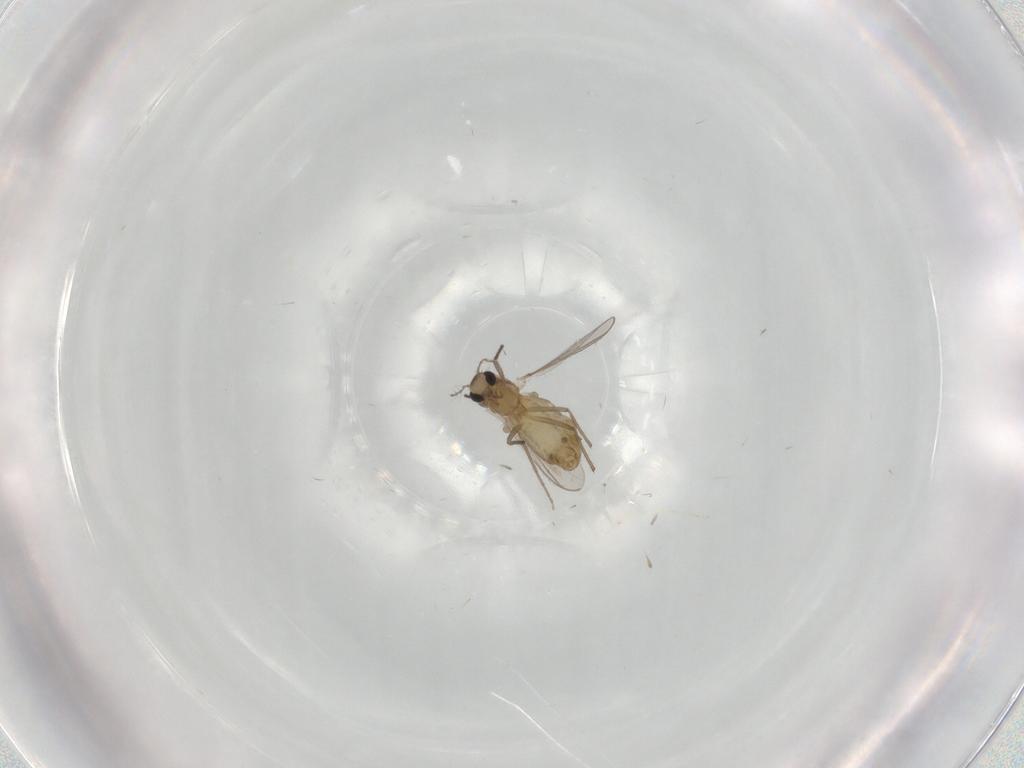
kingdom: Animalia
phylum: Arthropoda
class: Insecta
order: Diptera
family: Chironomidae
